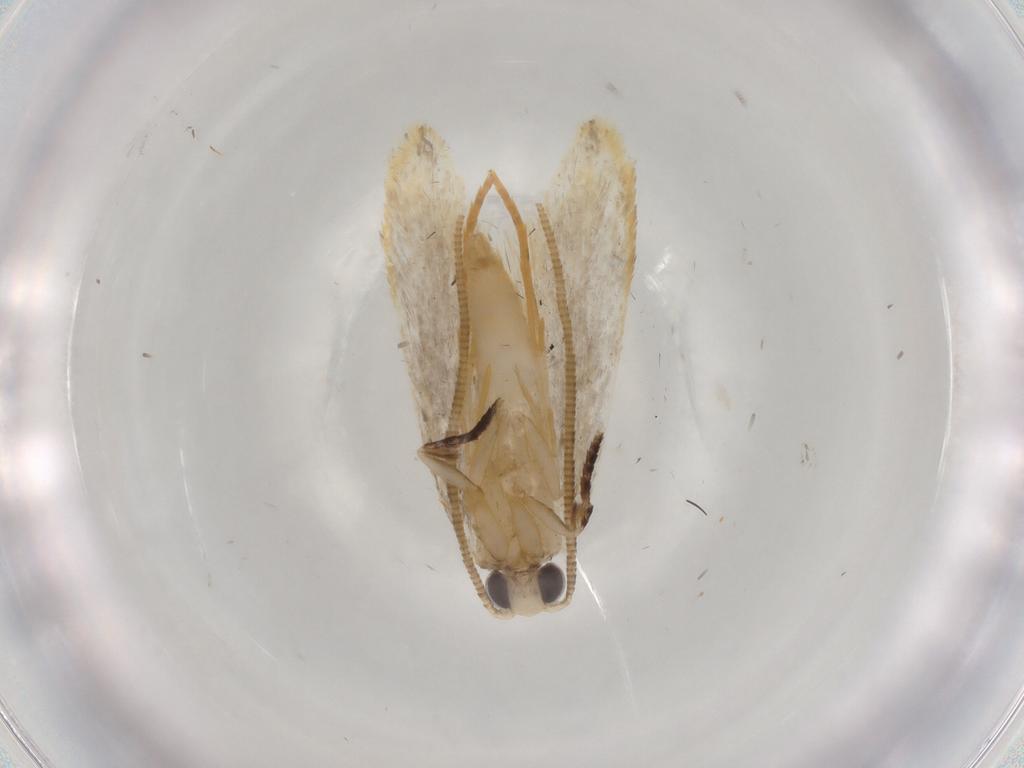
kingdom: Animalia
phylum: Arthropoda
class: Insecta
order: Lepidoptera
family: Tineidae
